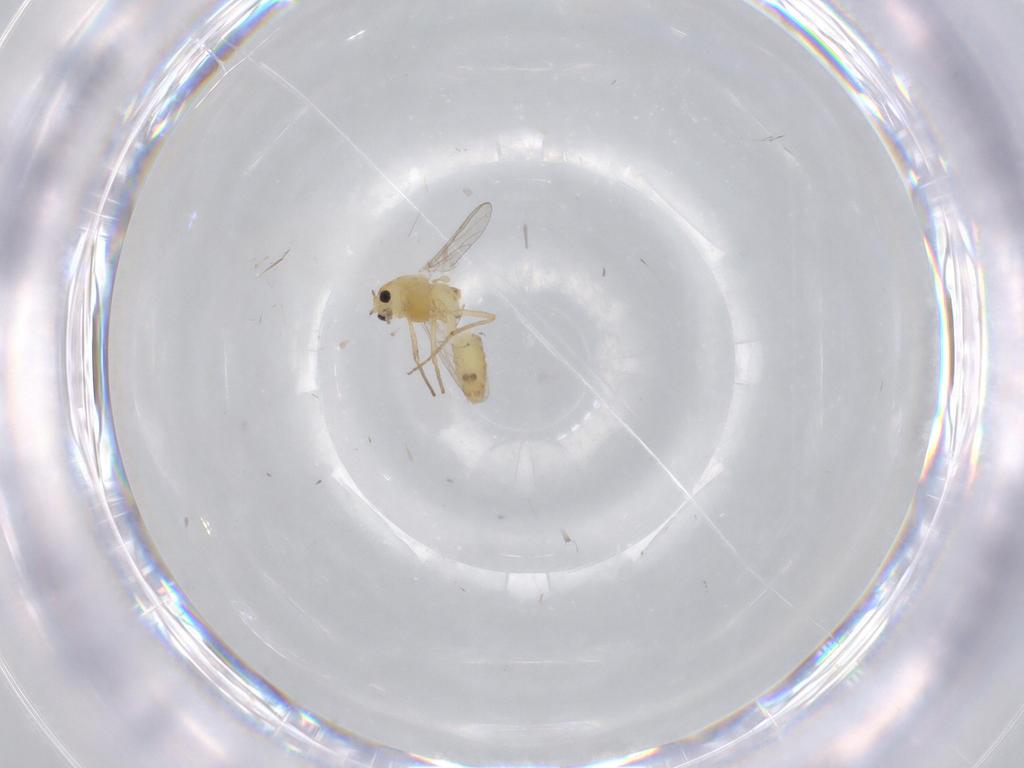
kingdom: Animalia
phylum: Arthropoda
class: Insecta
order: Diptera
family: Chironomidae
